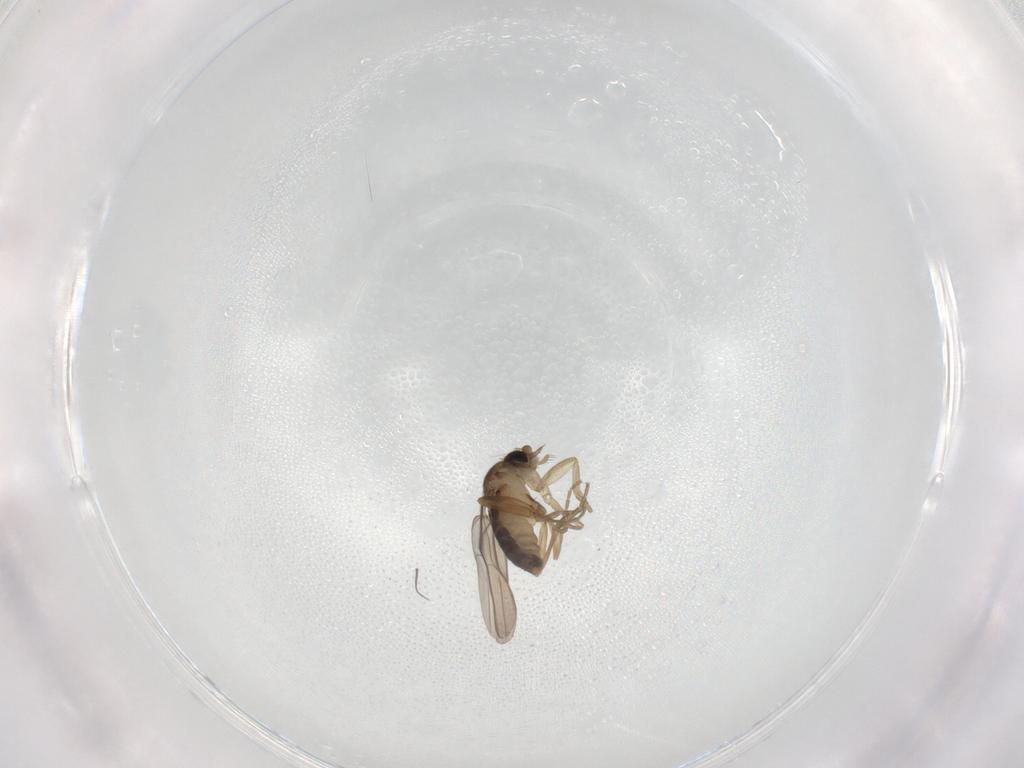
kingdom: Animalia
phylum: Arthropoda
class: Insecta
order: Diptera
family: Phoridae
